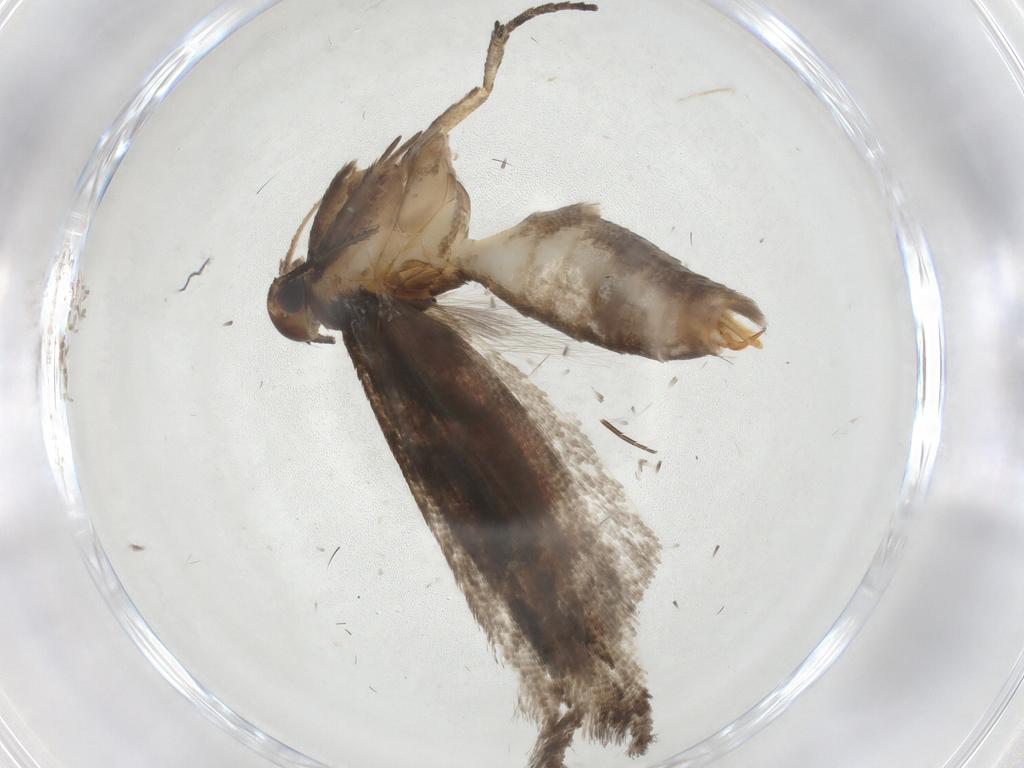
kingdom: Animalia
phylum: Arthropoda
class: Insecta
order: Lepidoptera
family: Gelechiidae
